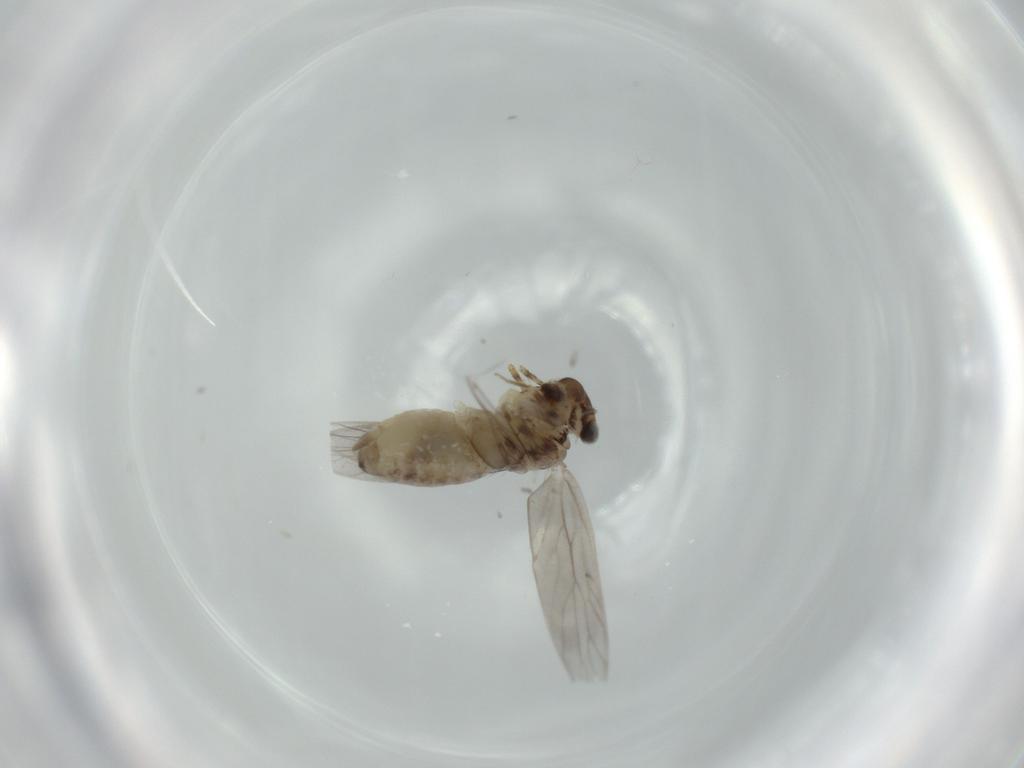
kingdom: Animalia
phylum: Arthropoda
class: Insecta
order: Psocodea
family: Lepidopsocidae
